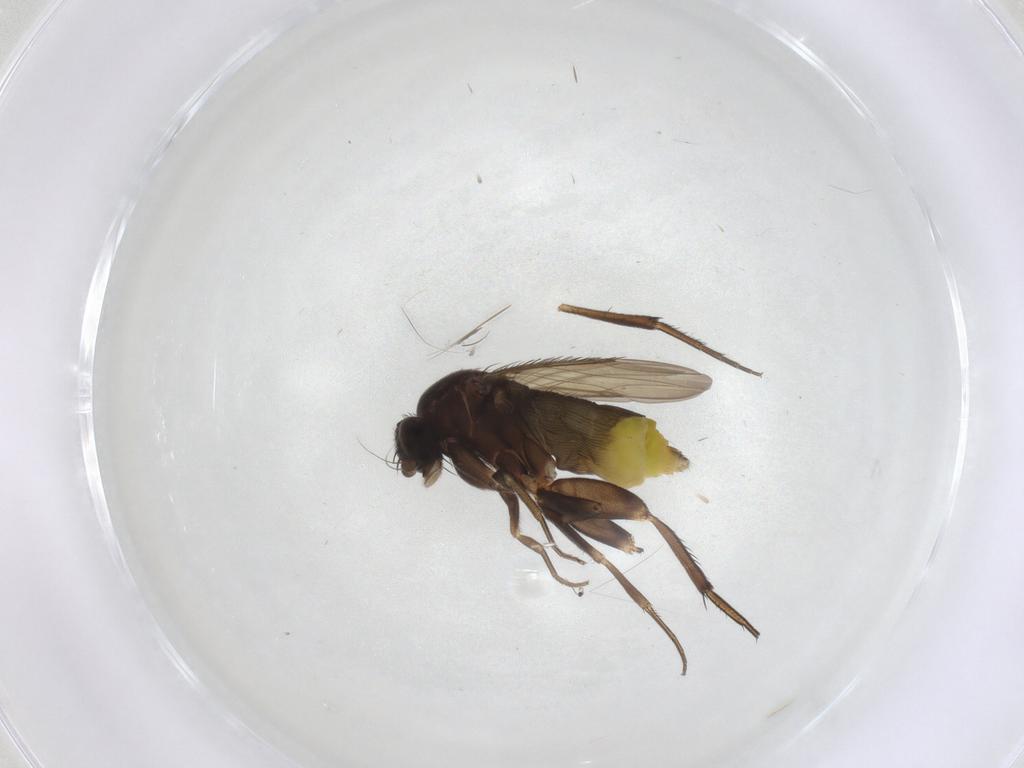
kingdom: Animalia
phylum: Arthropoda
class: Insecta
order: Diptera
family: Phoridae
